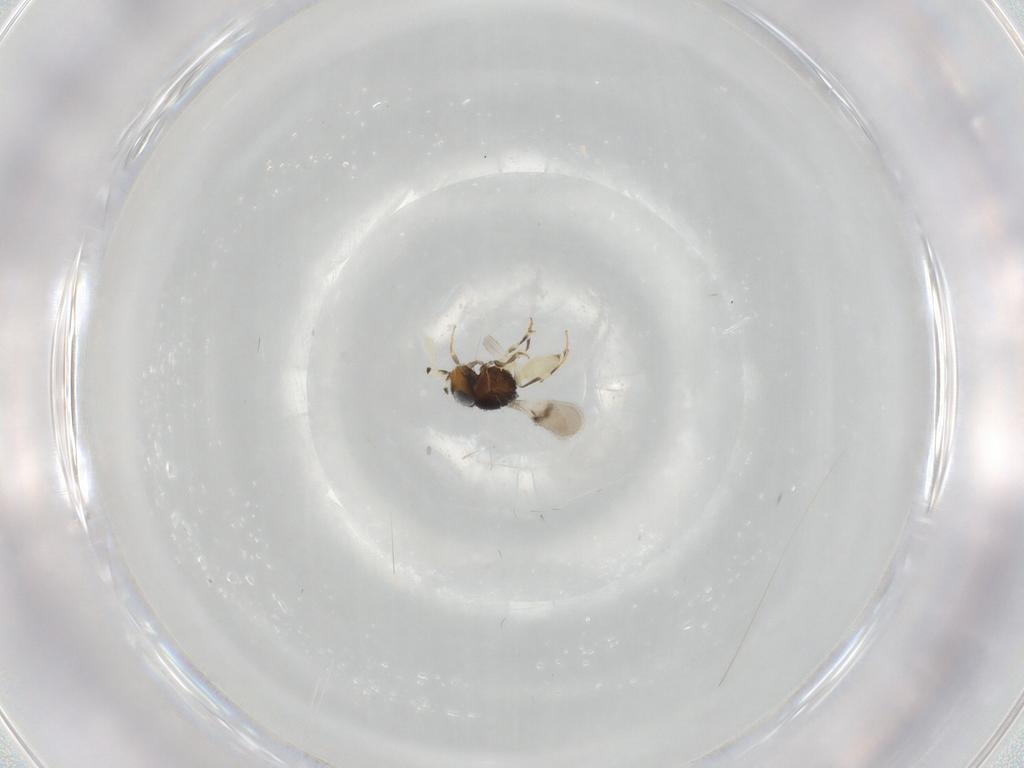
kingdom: Animalia
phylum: Arthropoda
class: Insecta
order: Hymenoptera
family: Scelionidae
